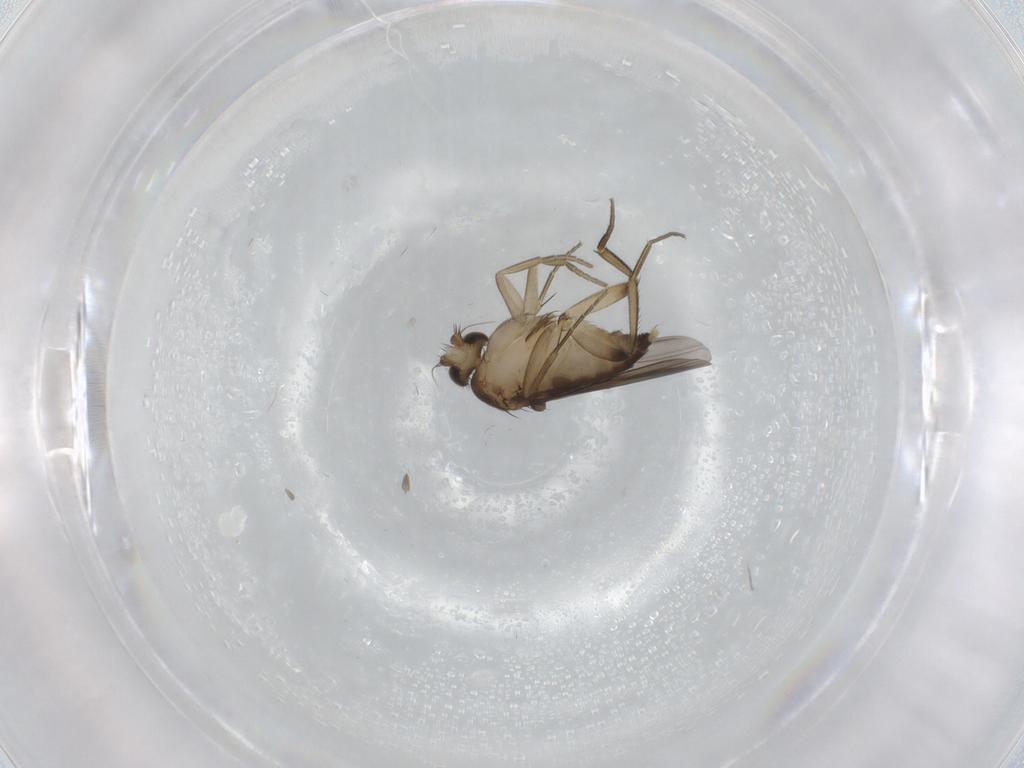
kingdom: Animalia
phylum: Arthropoda
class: Insecta
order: Diptera
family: Phoridae
